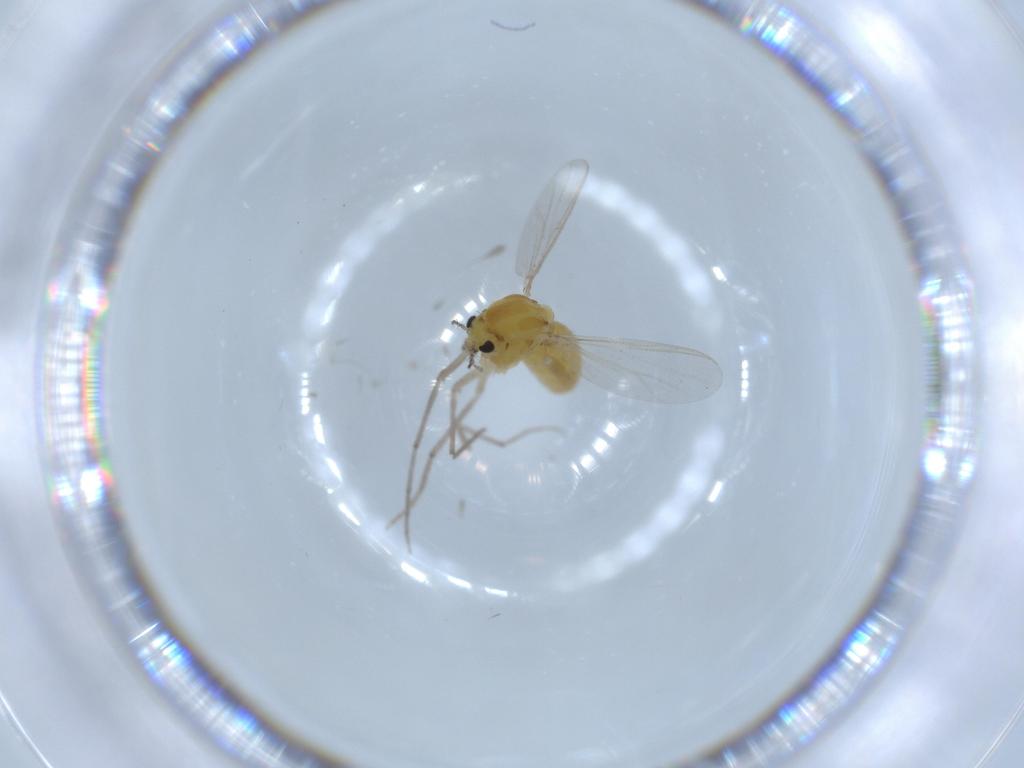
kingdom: Animalia
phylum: Arthropoda
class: Insecta
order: Diptera
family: Chironomidae
